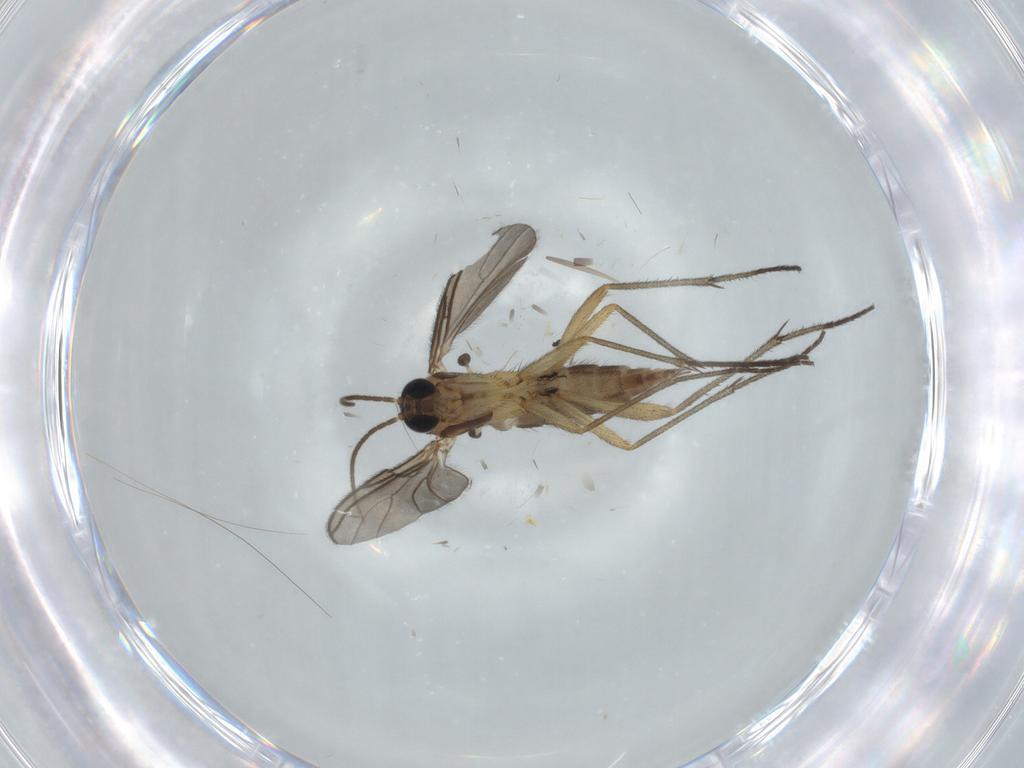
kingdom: Animalia
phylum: Arthropoda
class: Insecta
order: Diptera
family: Sciaridae
